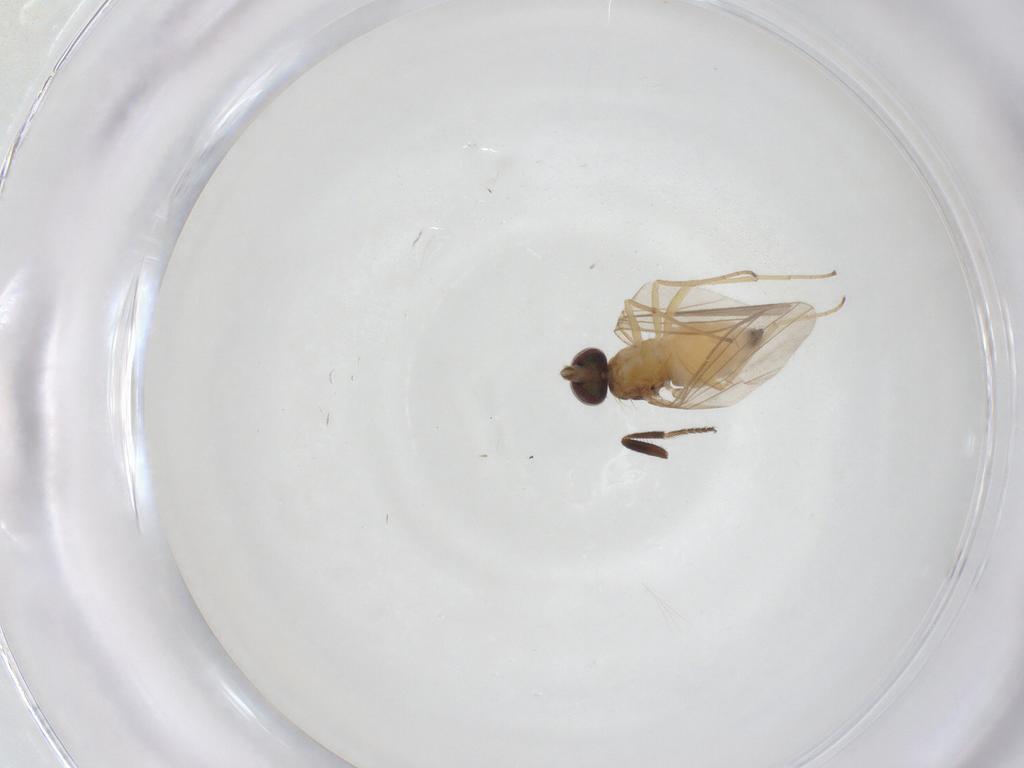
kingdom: Animalia
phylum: Arthropoda
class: Insecta
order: Diptera
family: Milichiidae
